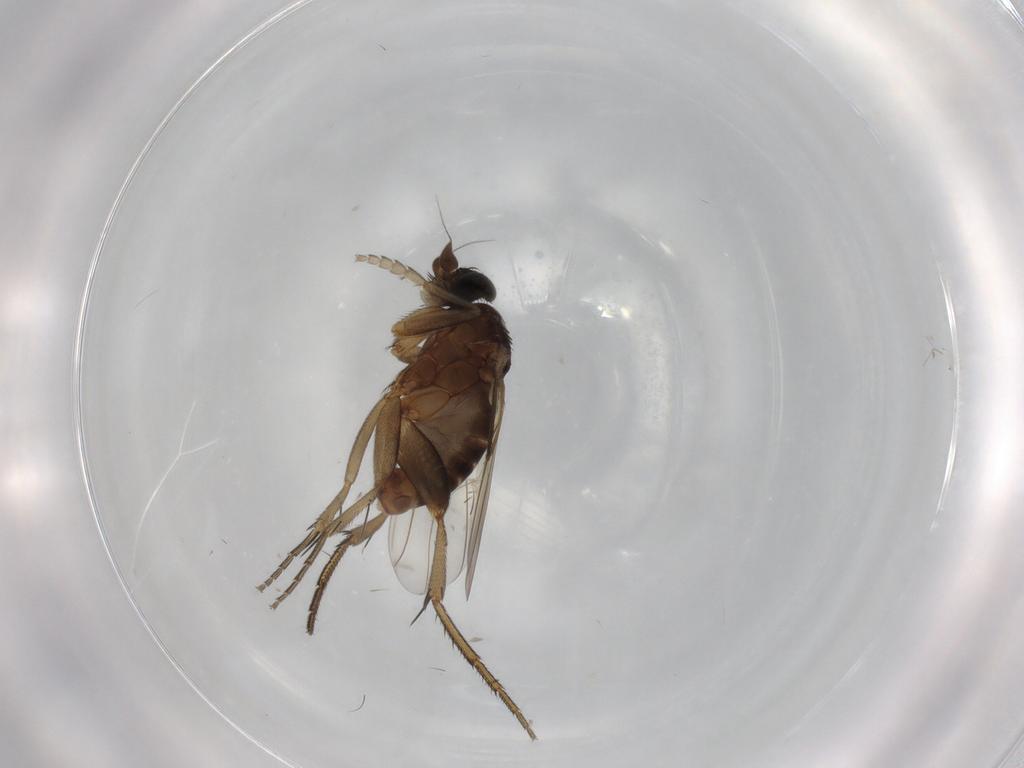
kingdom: Animalia
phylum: Arthropoda
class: Insecta
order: Diptera
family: Phoridae
